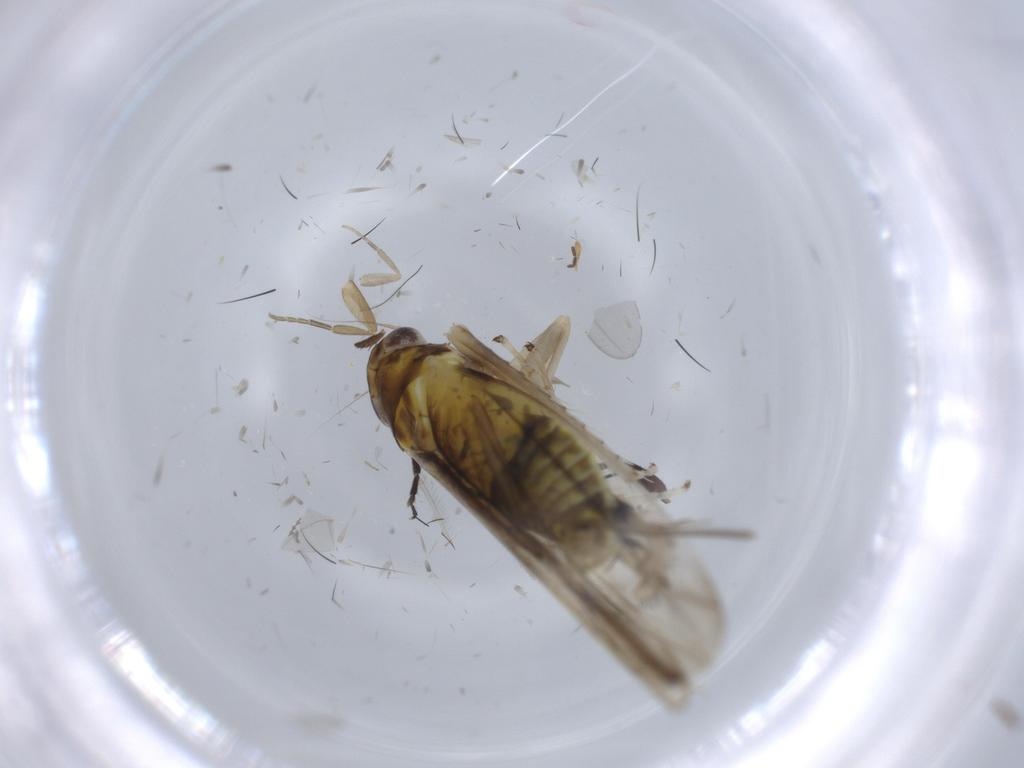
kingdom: Animalia
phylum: Arthropoda
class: Insecta
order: Hemiptera
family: Cicadellidae
